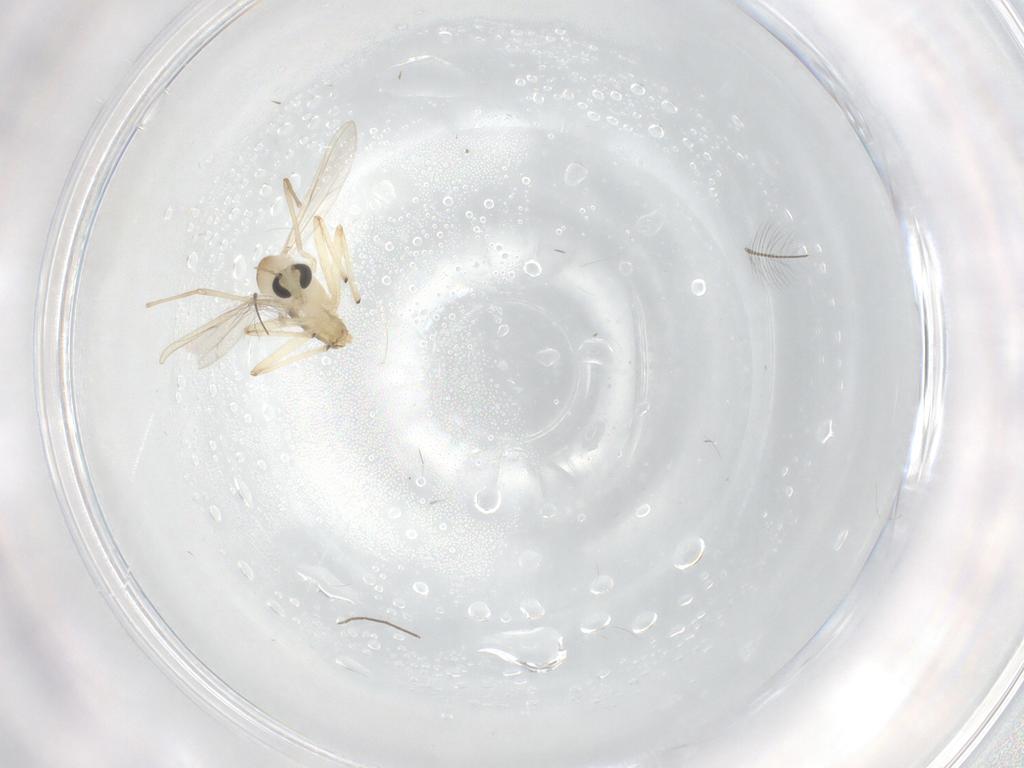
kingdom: Animalia
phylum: Arthropoda
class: Insecta
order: Diptera
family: Chironomidae
